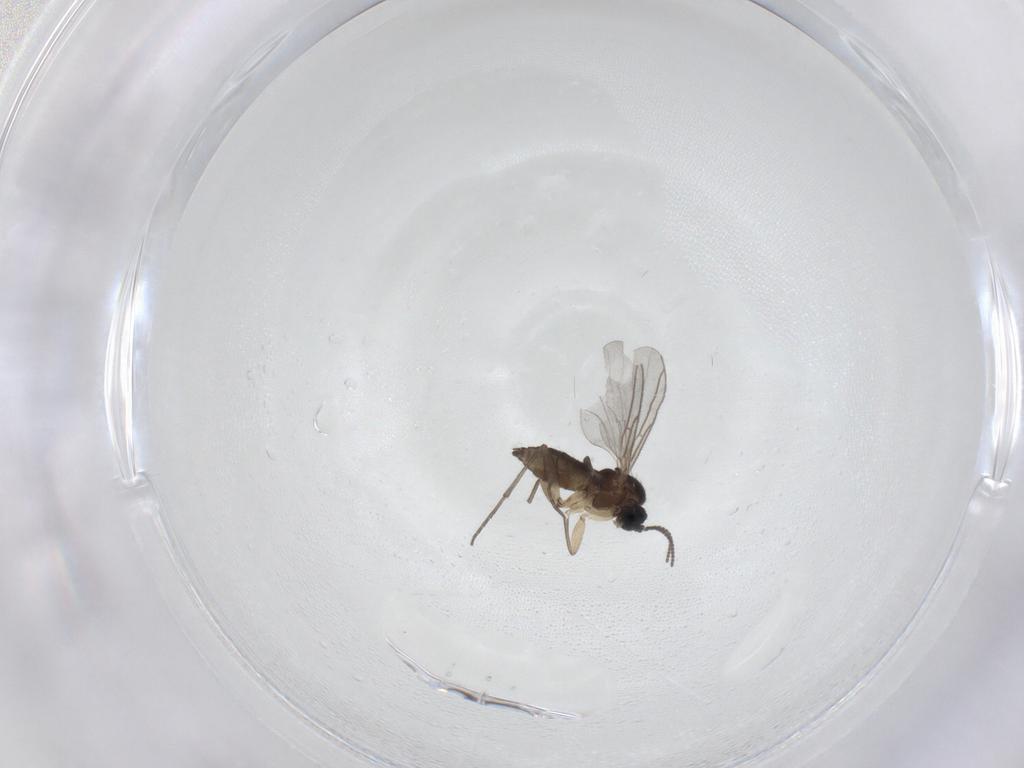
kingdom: Animalia
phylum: Arthropoda
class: Insecta
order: Diptera
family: Sciaridae
